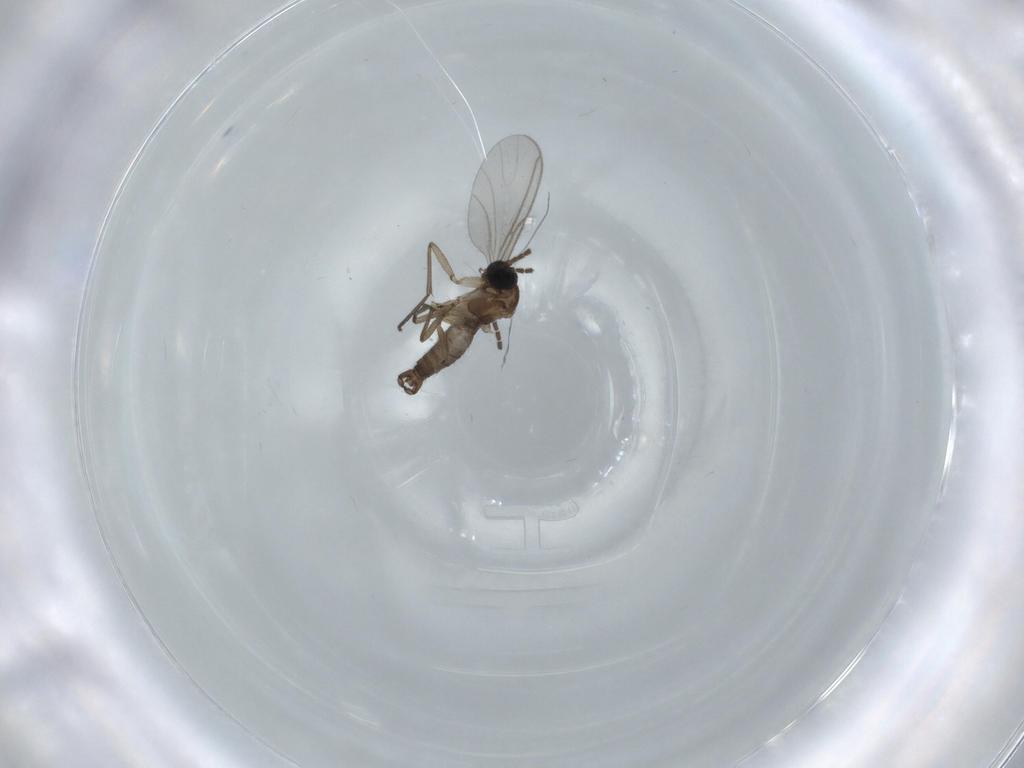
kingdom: Animalia
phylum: Arthropoda
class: Insecta
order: Diptera
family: Sciaridae
